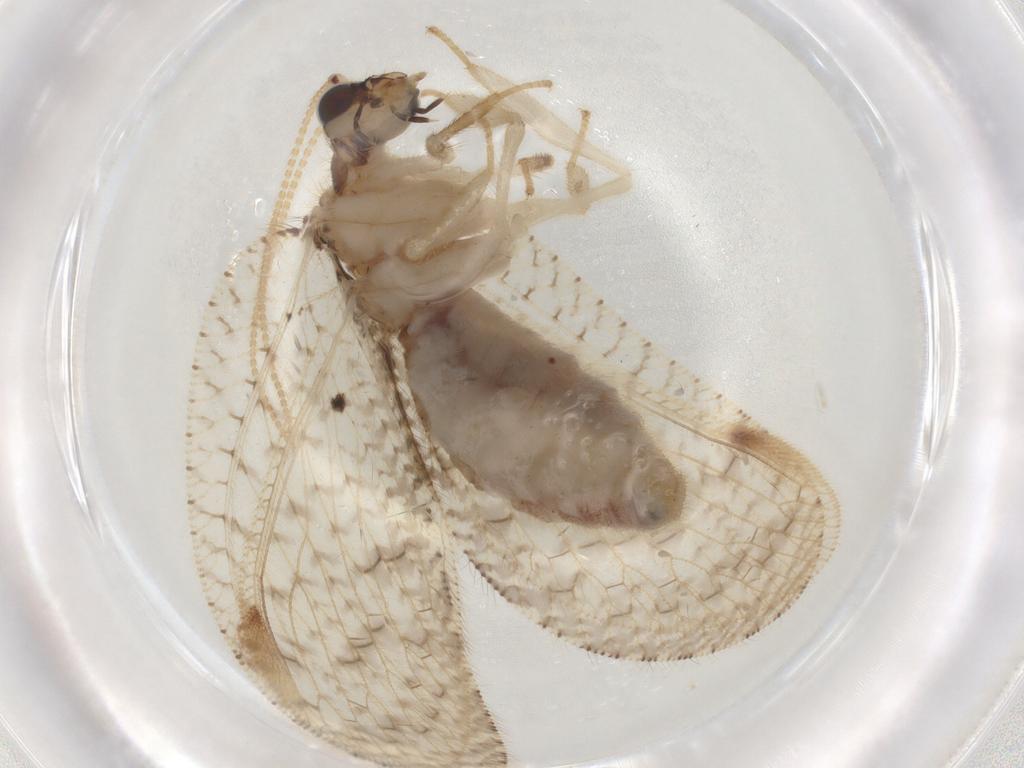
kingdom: Animalia
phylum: Arthropoda
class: Insecta
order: Neuroptera
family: Hemerobiidae
